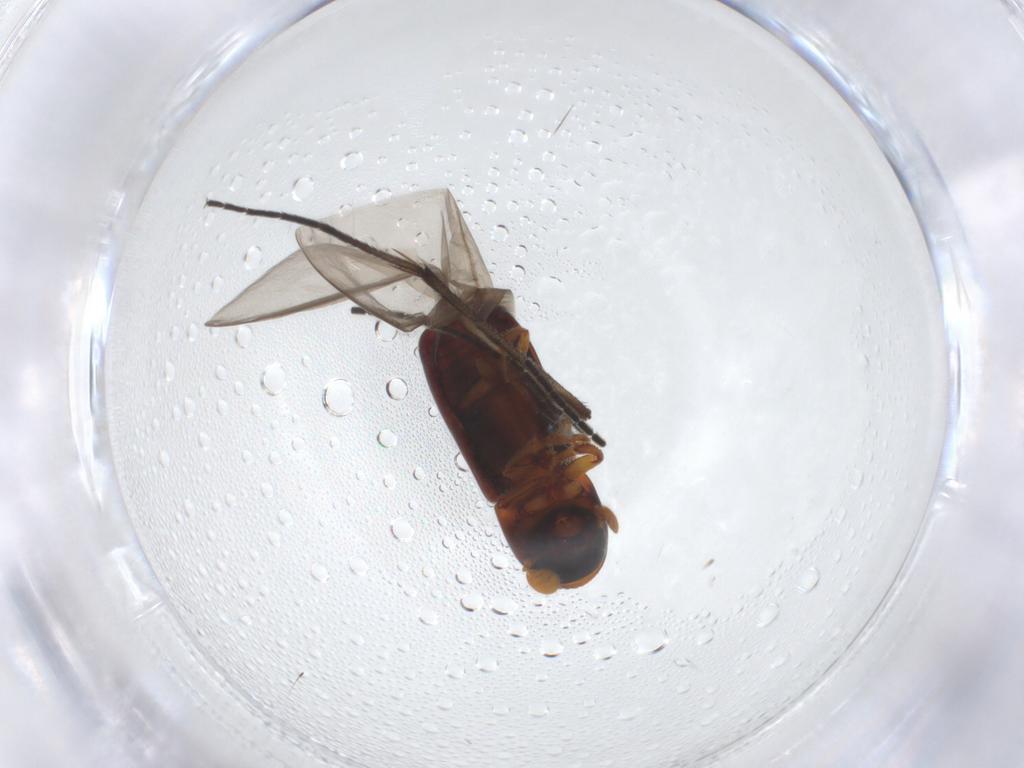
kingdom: Animalia
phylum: Arthropoda
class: Insecta
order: Coleoptera
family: Curculionidae
